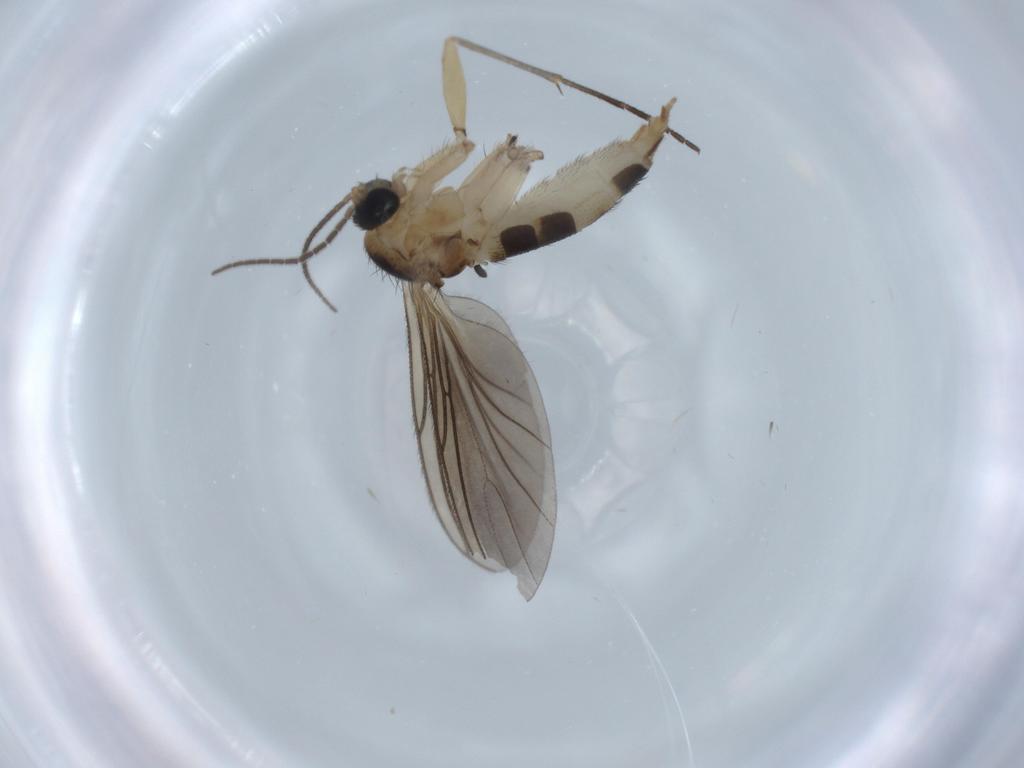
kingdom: Animalia
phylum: Arthropoda
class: Insecta
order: Diptera
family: Sciaridae
